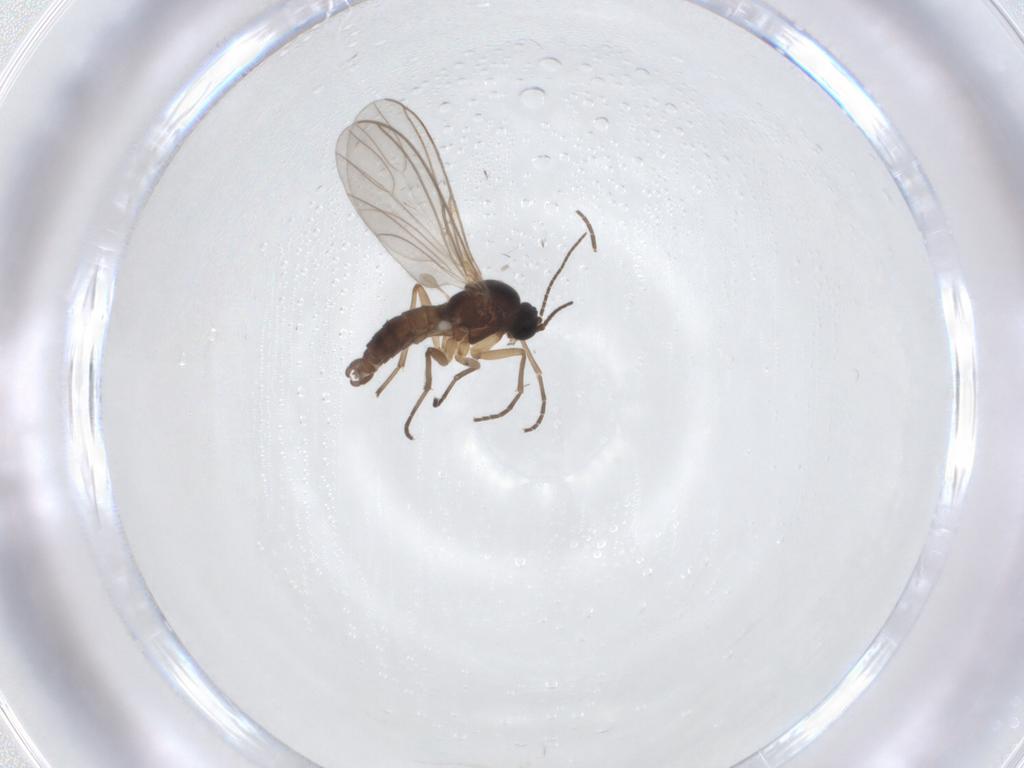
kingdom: Animalia
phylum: Arthropoda
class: Insecta
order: Diptera
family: Sciaridae
